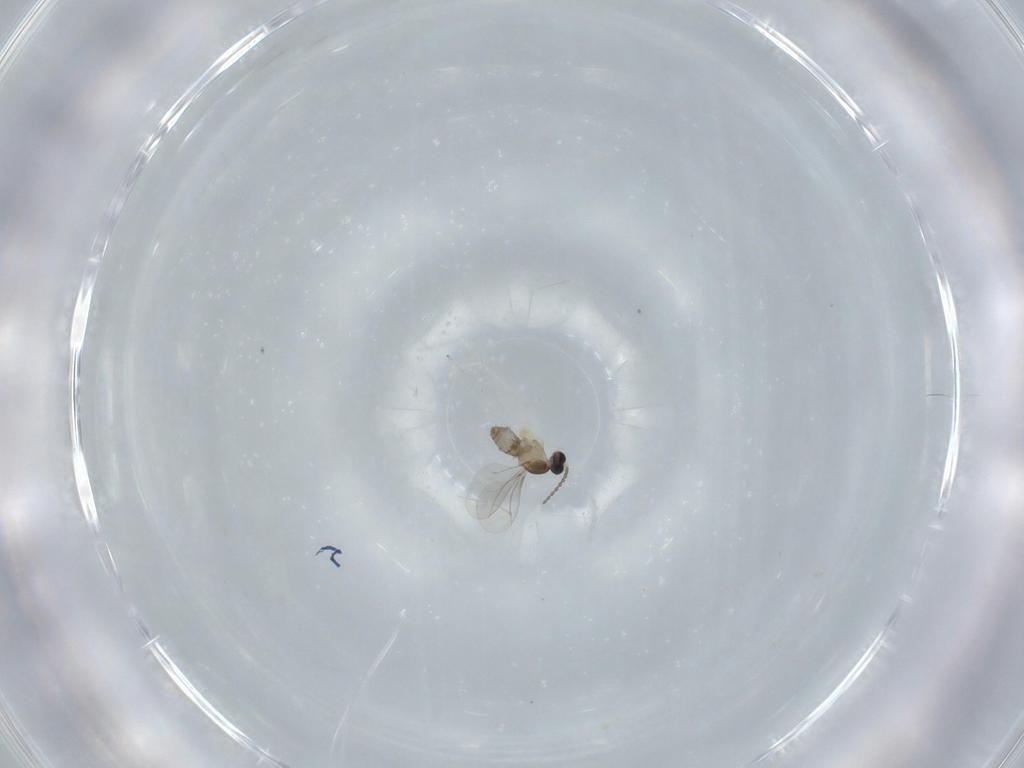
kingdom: Animalia
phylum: Arthropoda
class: Insecta
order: Diptera
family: Cecidomyiidae
